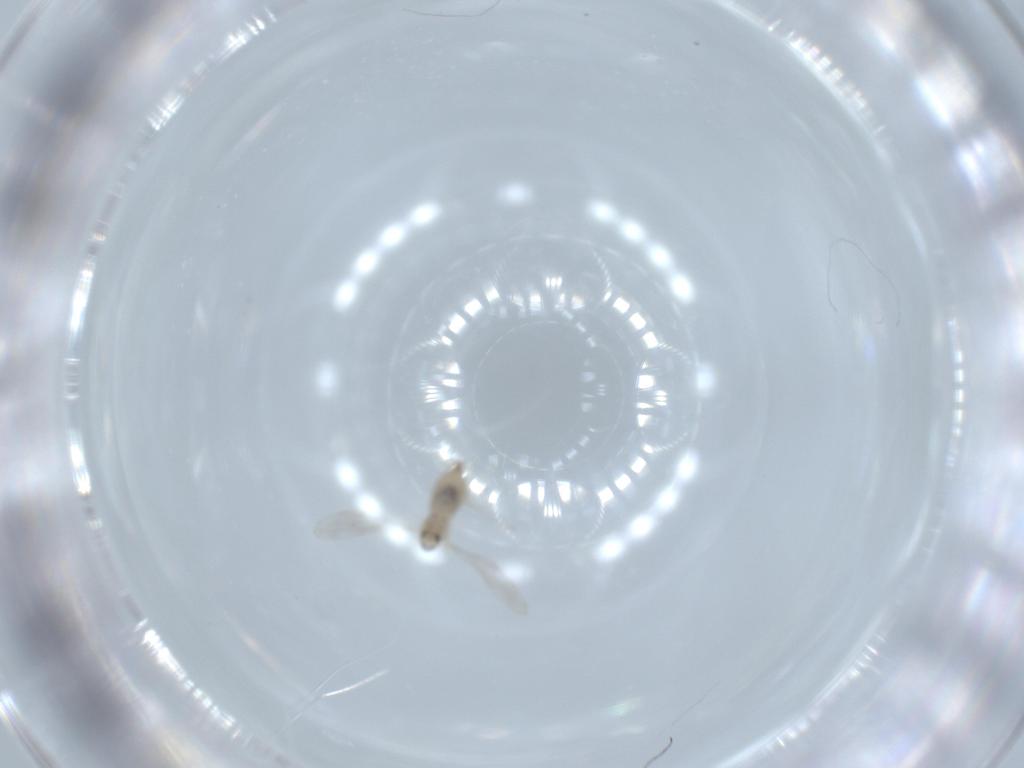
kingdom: Animalia
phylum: Arthropoda
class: Insecta
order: Diptera
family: Cecidomyiidae
